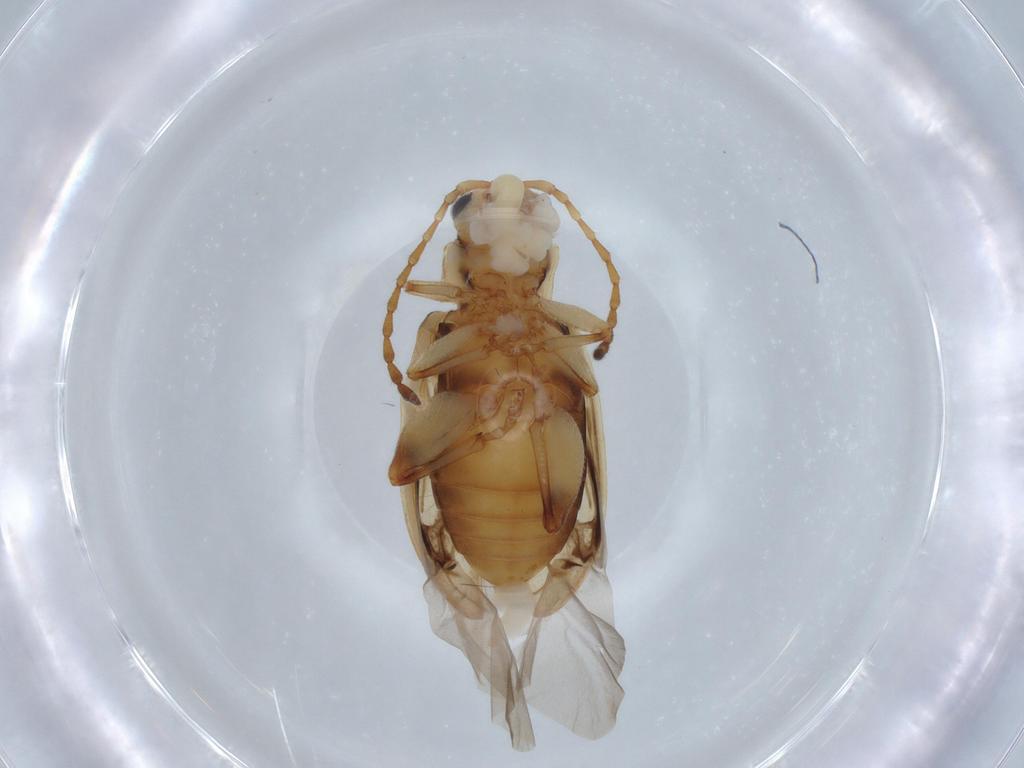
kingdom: Animalia
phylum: Arthropoda
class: Insecta
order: Coleoptera
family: Chrysomelidae
